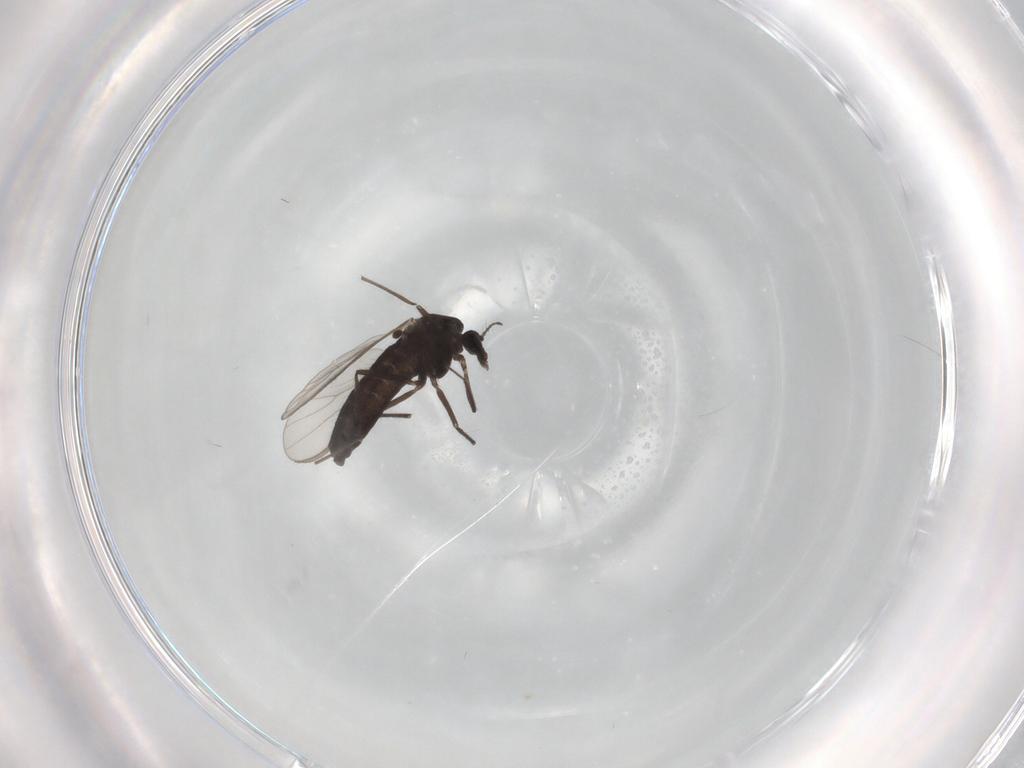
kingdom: Animalia
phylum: Arthropoda
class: Insecta
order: Diptera
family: Chironomidae
